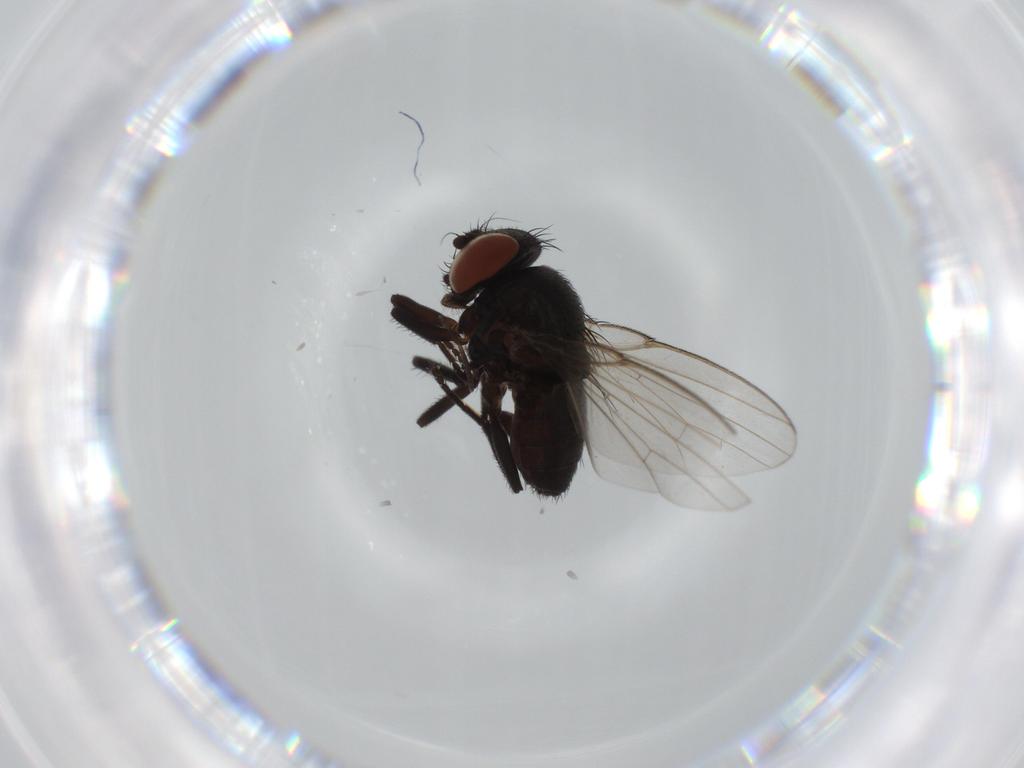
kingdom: Animalia
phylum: Arthropoda
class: Insecta
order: Diptera
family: Milichiidae
